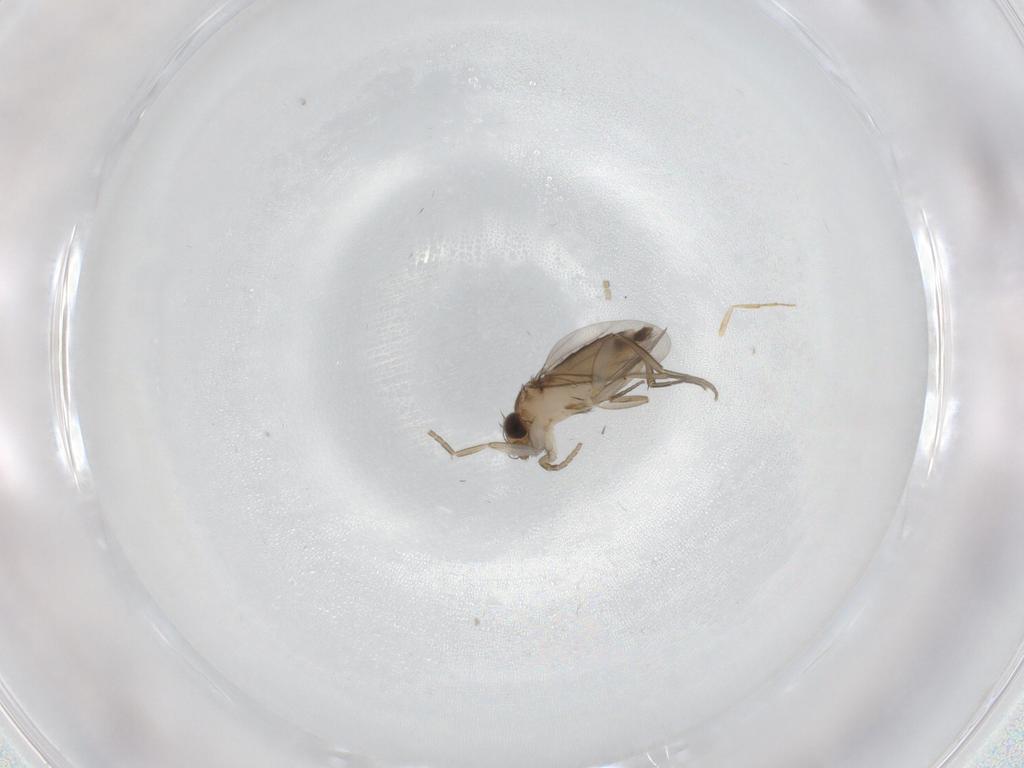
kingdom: Animalia
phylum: Arthropoda
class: Insecta
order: Diptera
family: Phoridae
